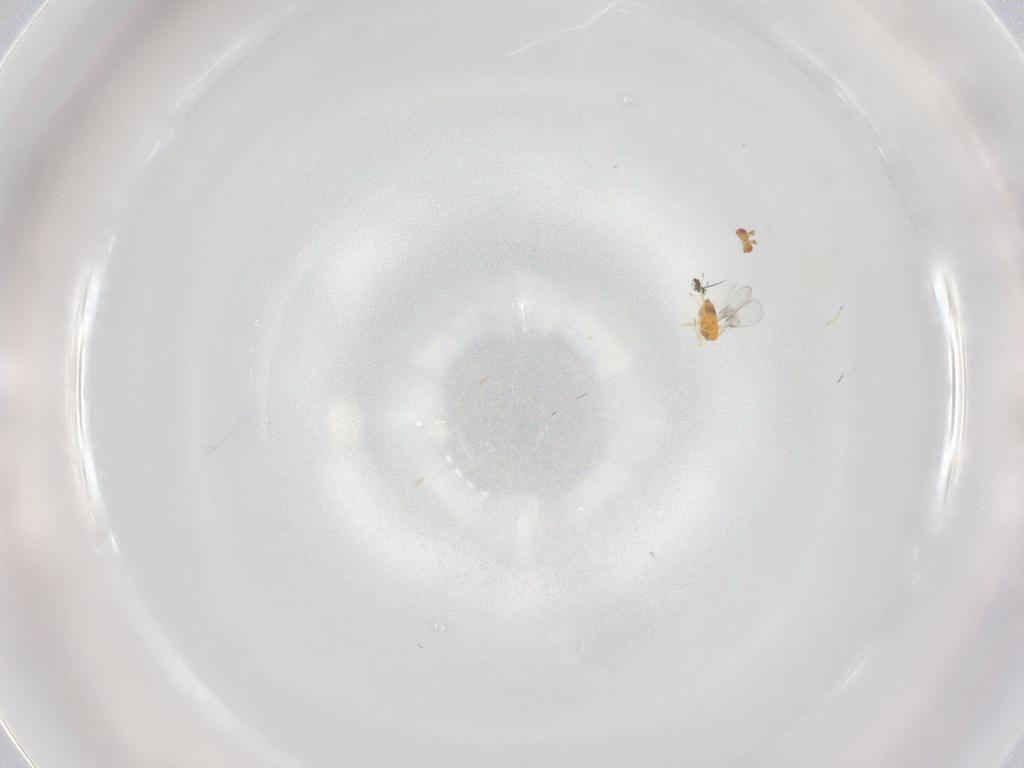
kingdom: Animalia
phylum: Arthropoda
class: Insecta
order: Hymenoptera
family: Trichogrammatidae
